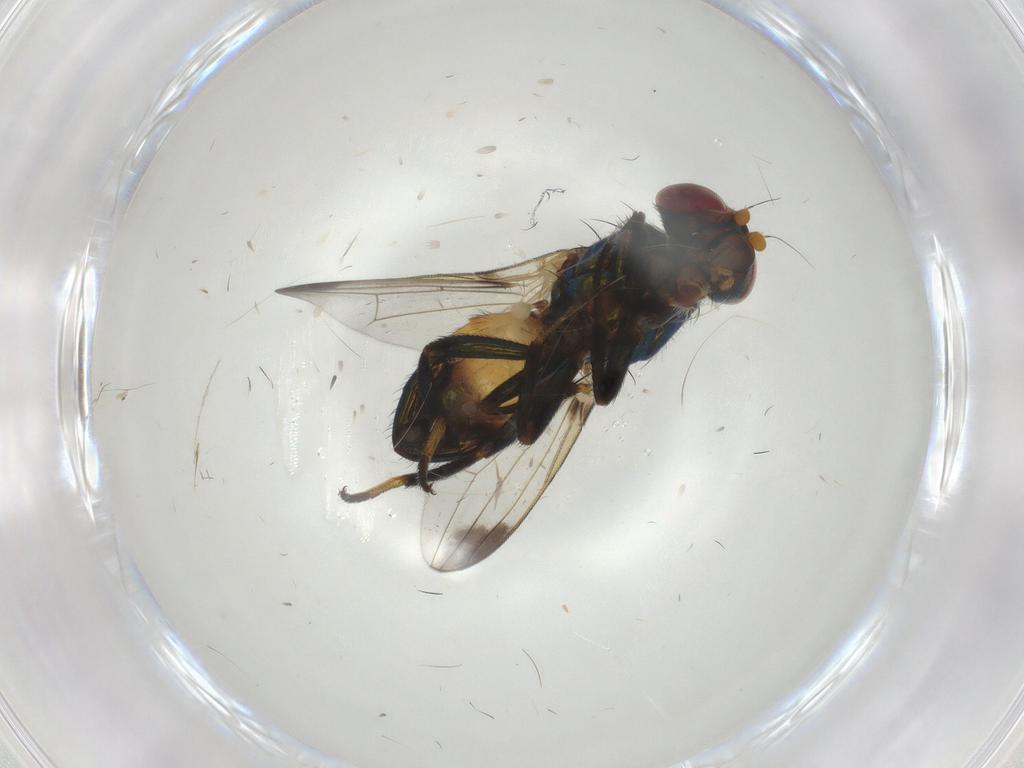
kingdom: Animalia
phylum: Arthropoda
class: Insecta
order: Diptera
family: Ulidiidae
